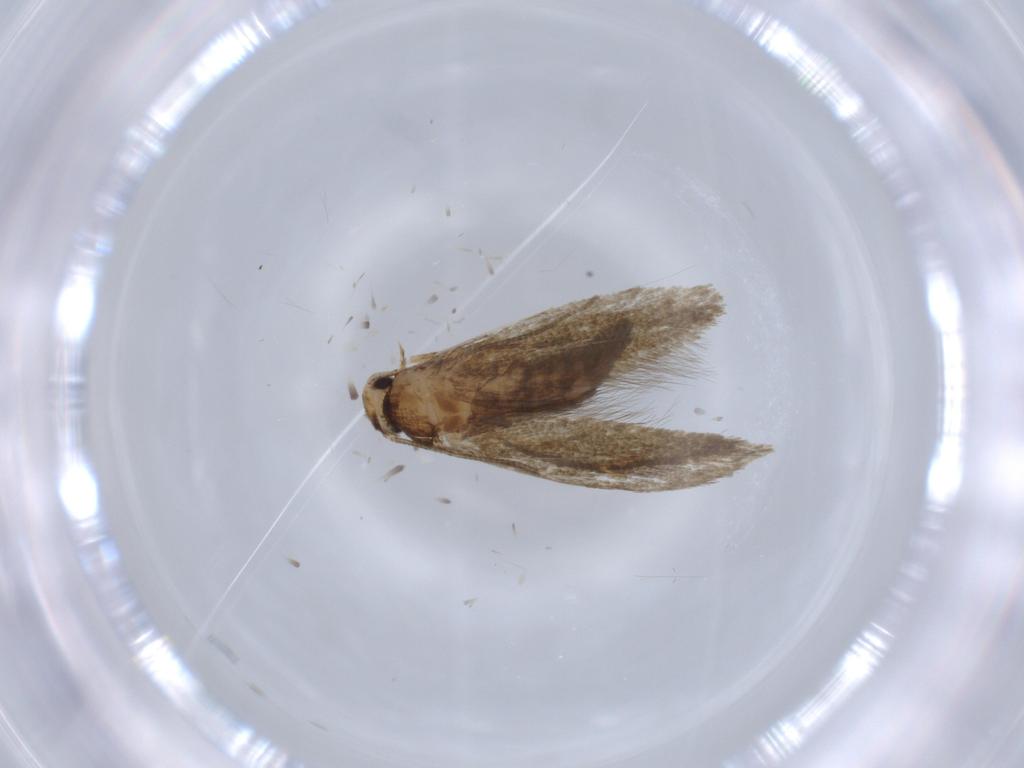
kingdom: Animalia
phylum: Arthropoda
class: Insecta
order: Lepidoptera
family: Tineidae
